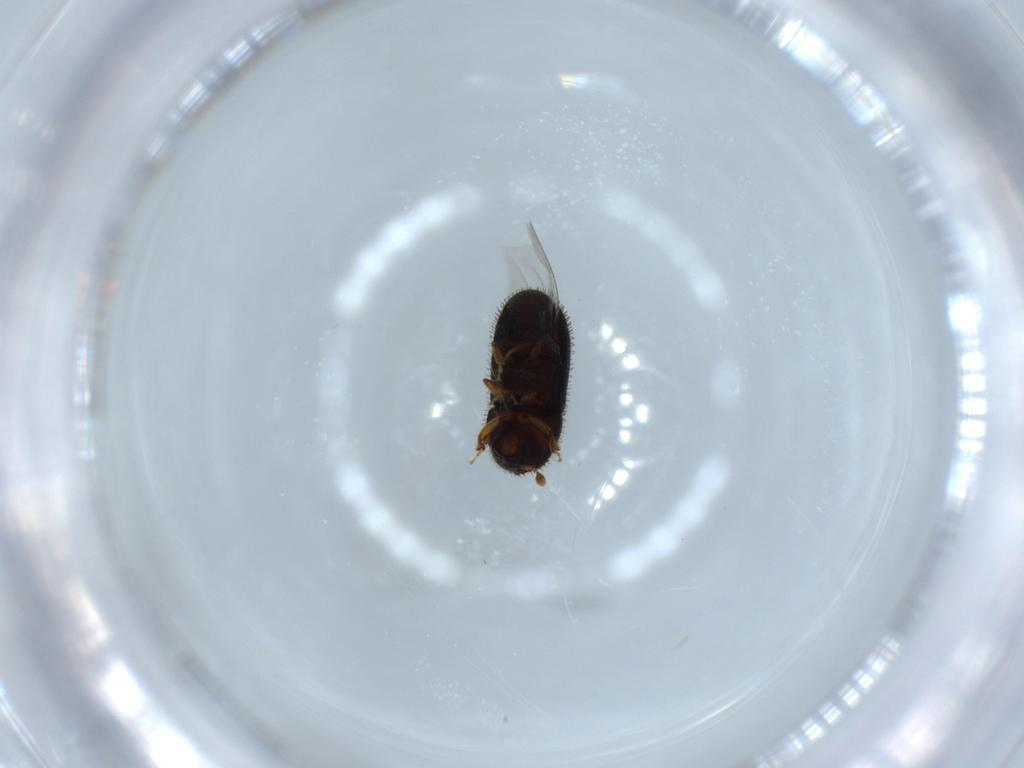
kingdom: Animalia
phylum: Arthropoda
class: Insecta
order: Coleoptera
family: Curculionidae
